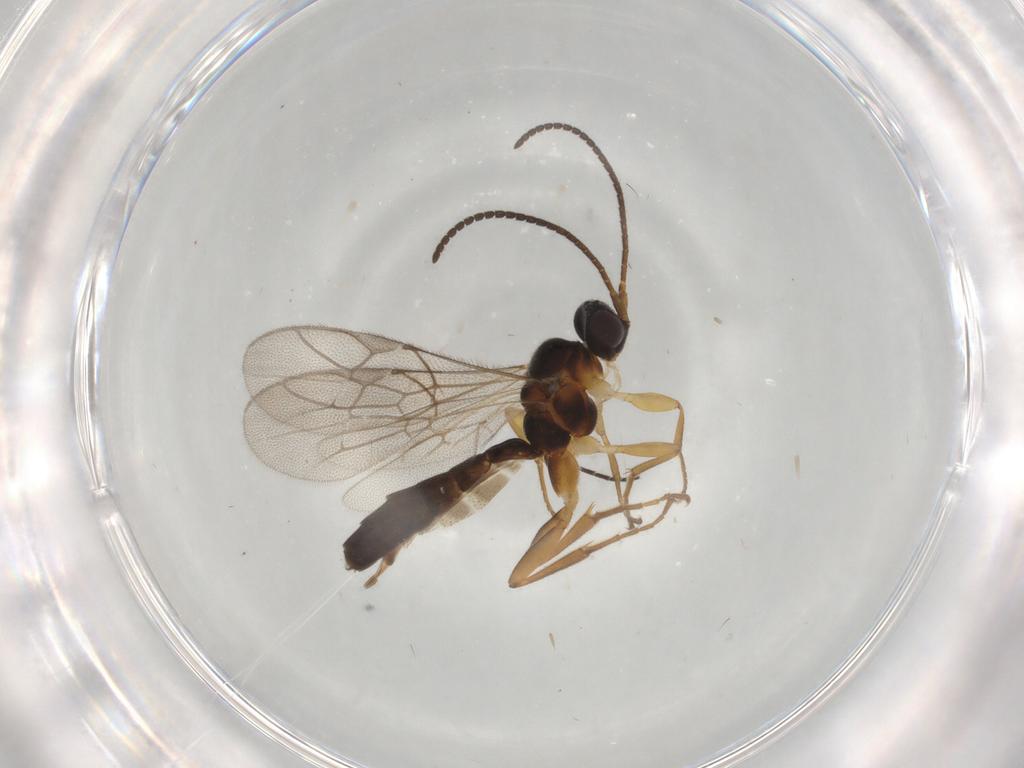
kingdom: Animalia
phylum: Arthropoda
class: Insecta
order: Hymenoptera
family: Ichneumonidae
